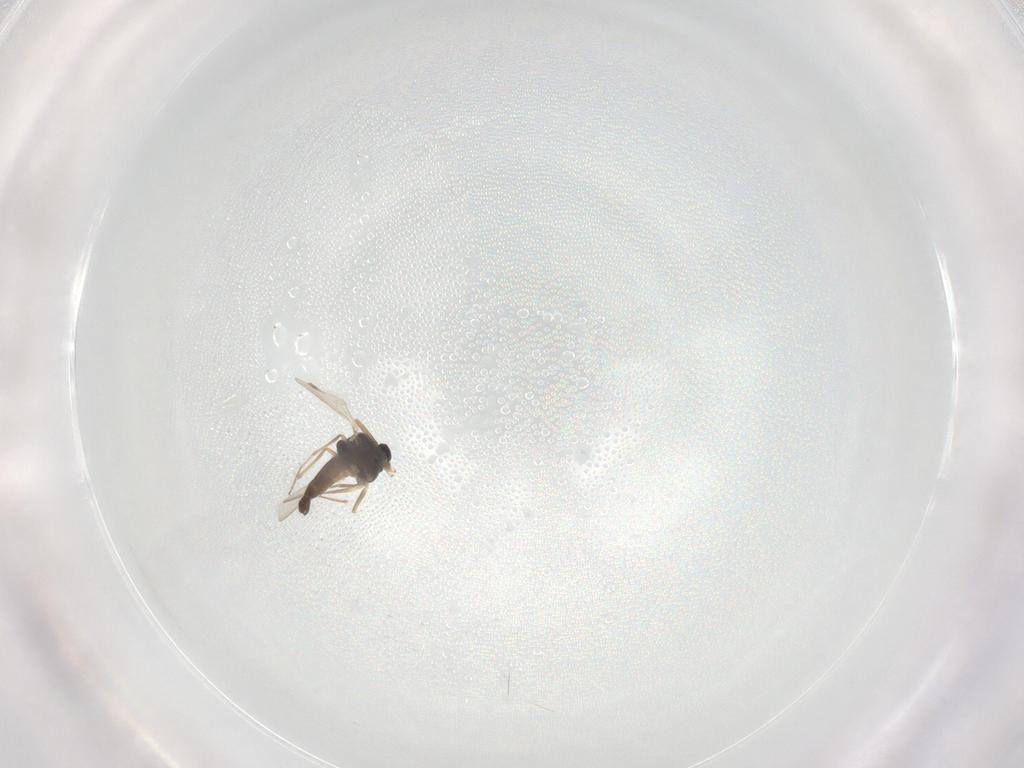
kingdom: Animalia
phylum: Arthropoda
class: Insecta
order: Diptera
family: Chironomidae
